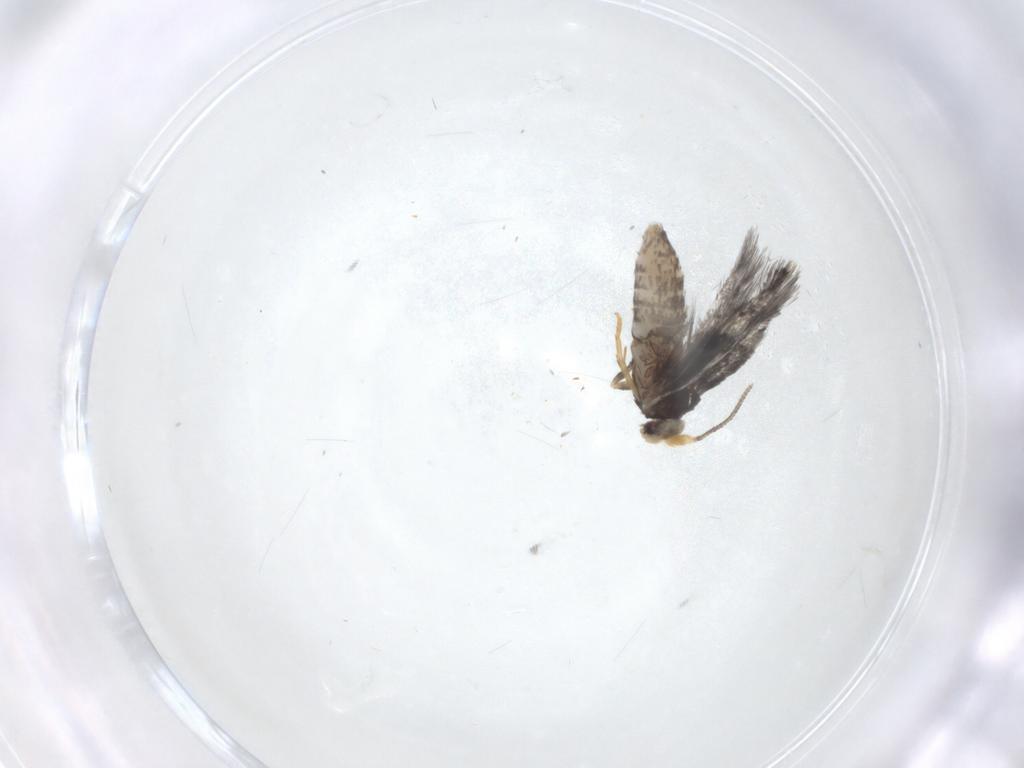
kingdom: Animalia
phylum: Arthropoda
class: Insecta
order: Lepidoptera
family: Nepticulidae
